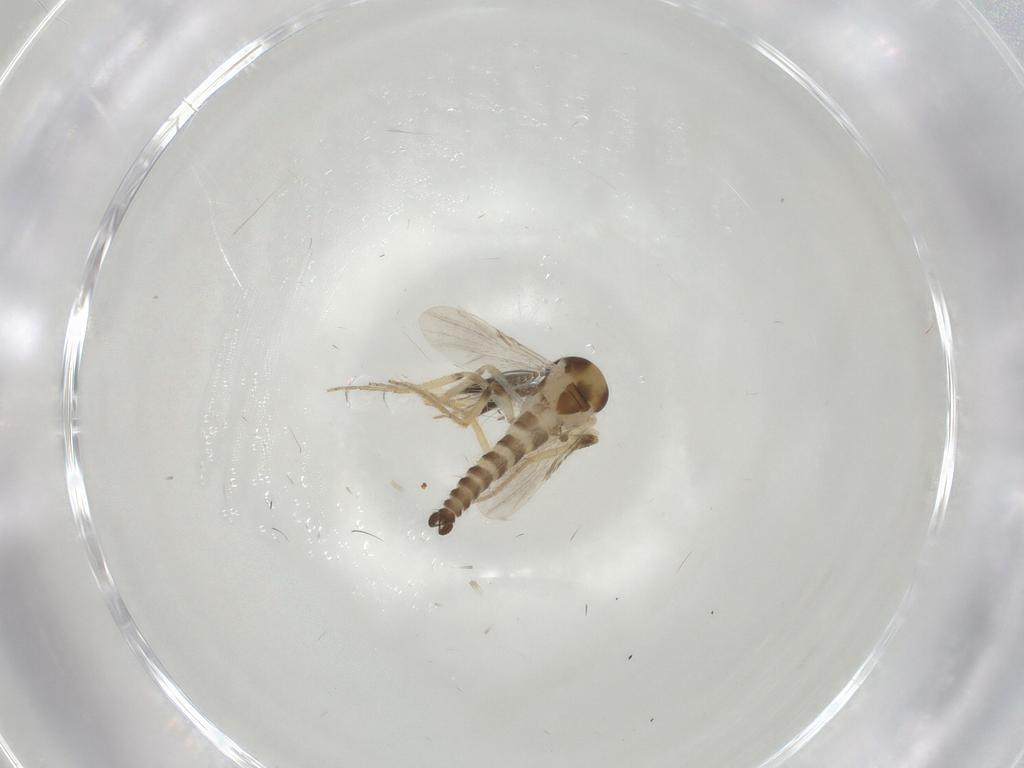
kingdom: Animalia
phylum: Arthropoda
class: Insecta
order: Diptera
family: Ceratopogonidae
